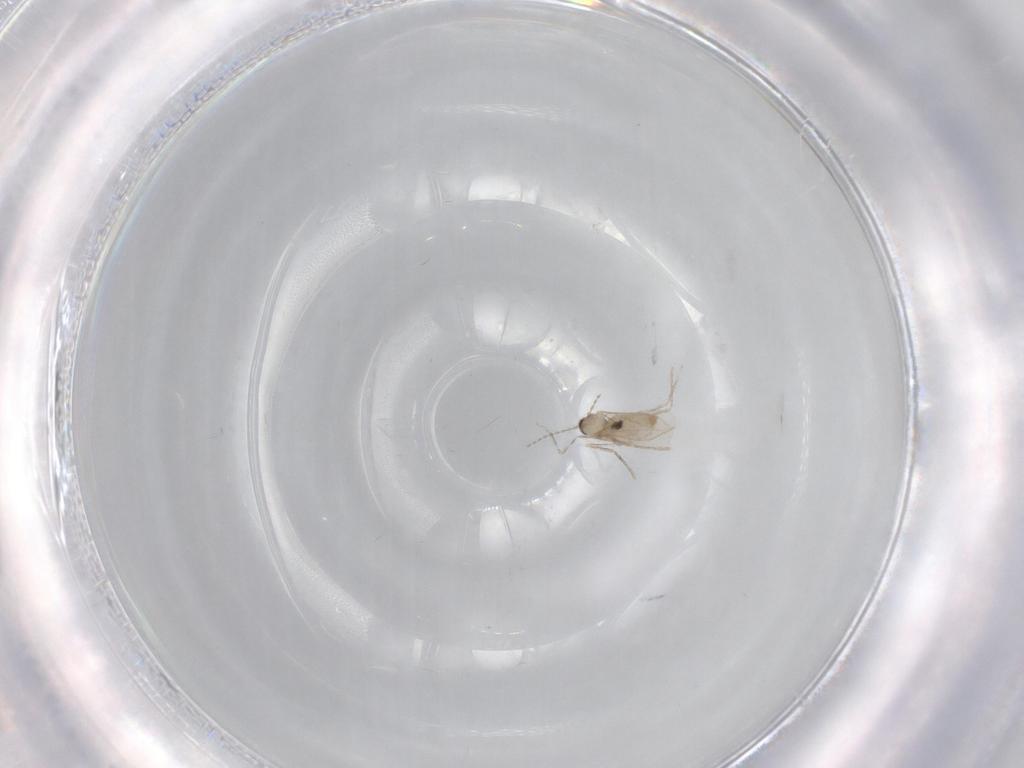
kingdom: Animalia
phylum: Arthropoda
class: Insecta
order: Diptera
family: Cecidomyiidae
